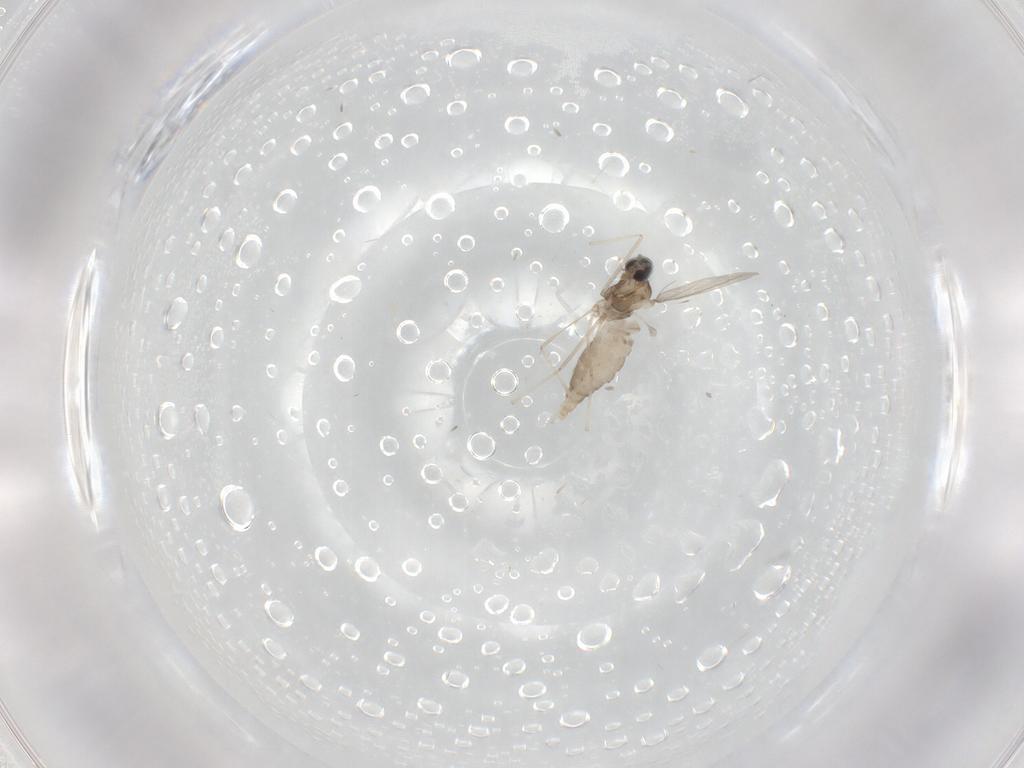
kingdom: Animalia
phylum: Arthropoda
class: Insecta
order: Diptera
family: Cecidomyiidae
